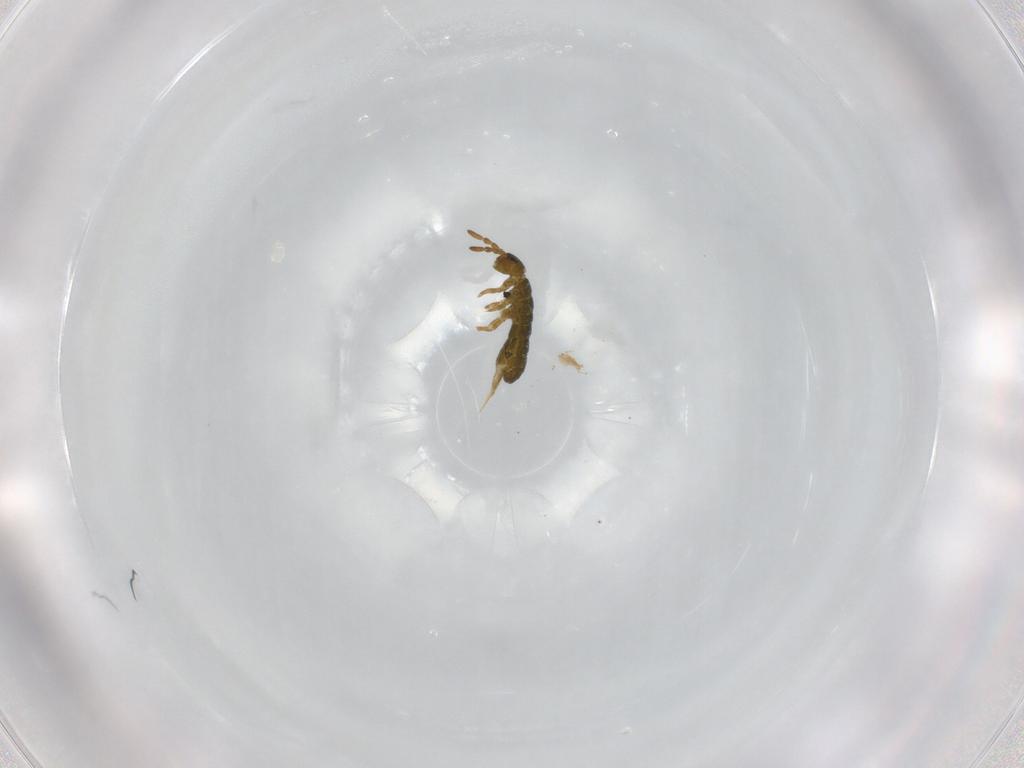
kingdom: Animalia
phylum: Arthropoda
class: Collembola
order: Entomobryomorpha
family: Isotomidae
